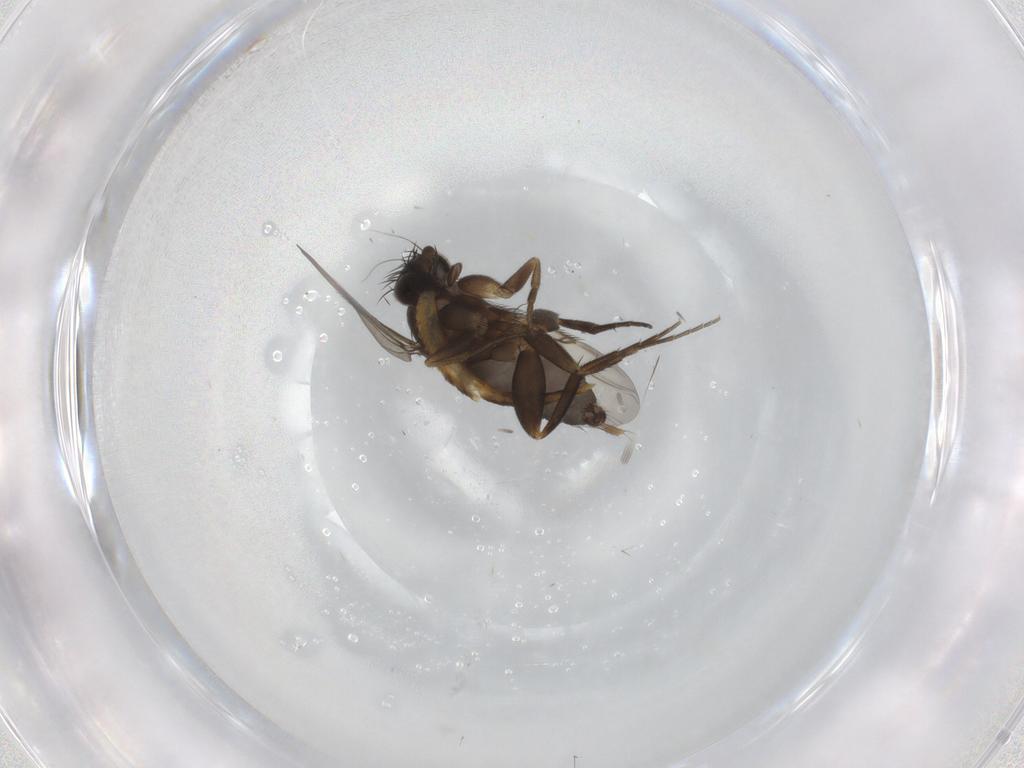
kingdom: Animalia
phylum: Arthropoda
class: Insecta
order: Diptera
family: Phoridae
